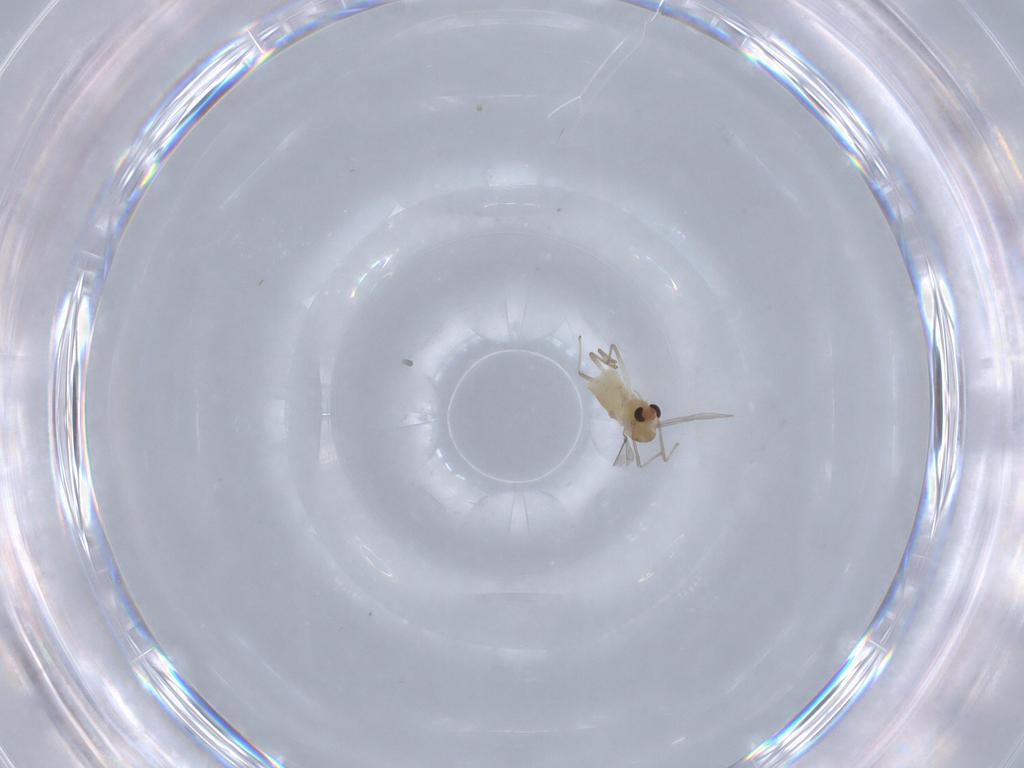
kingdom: Animalia
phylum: Arthropoda
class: Insecta
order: Diptera
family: Chironomidae
